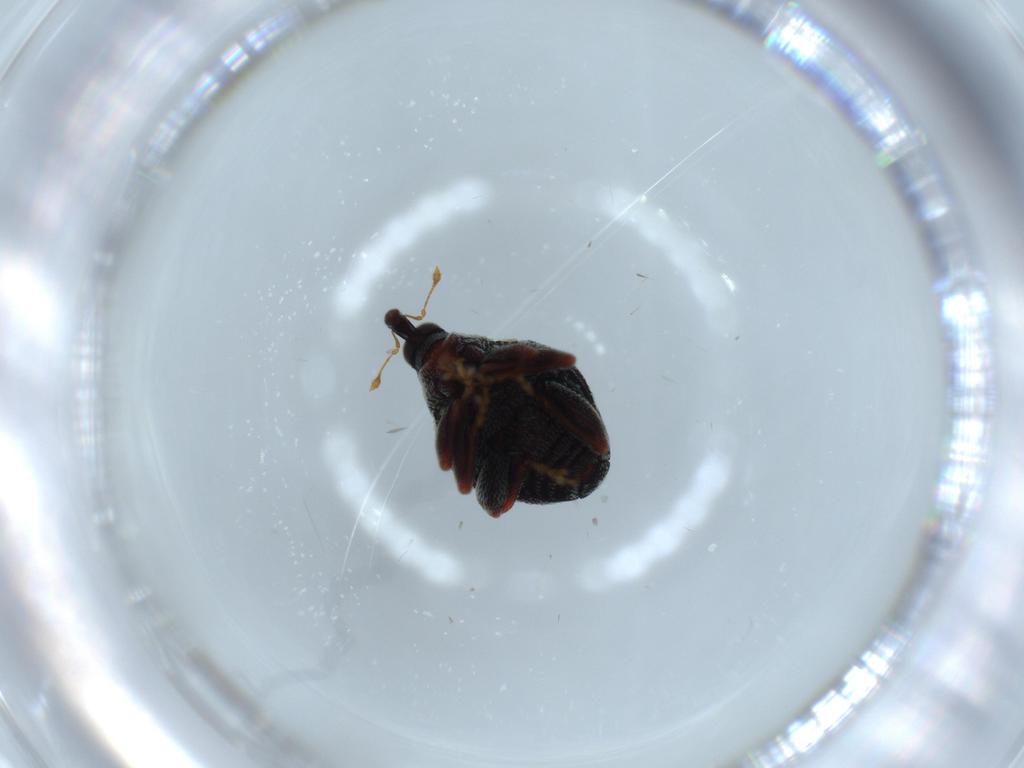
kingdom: Animalia
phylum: Arthropoda
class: Insecta
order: Coleoptera
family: Curculionidae
